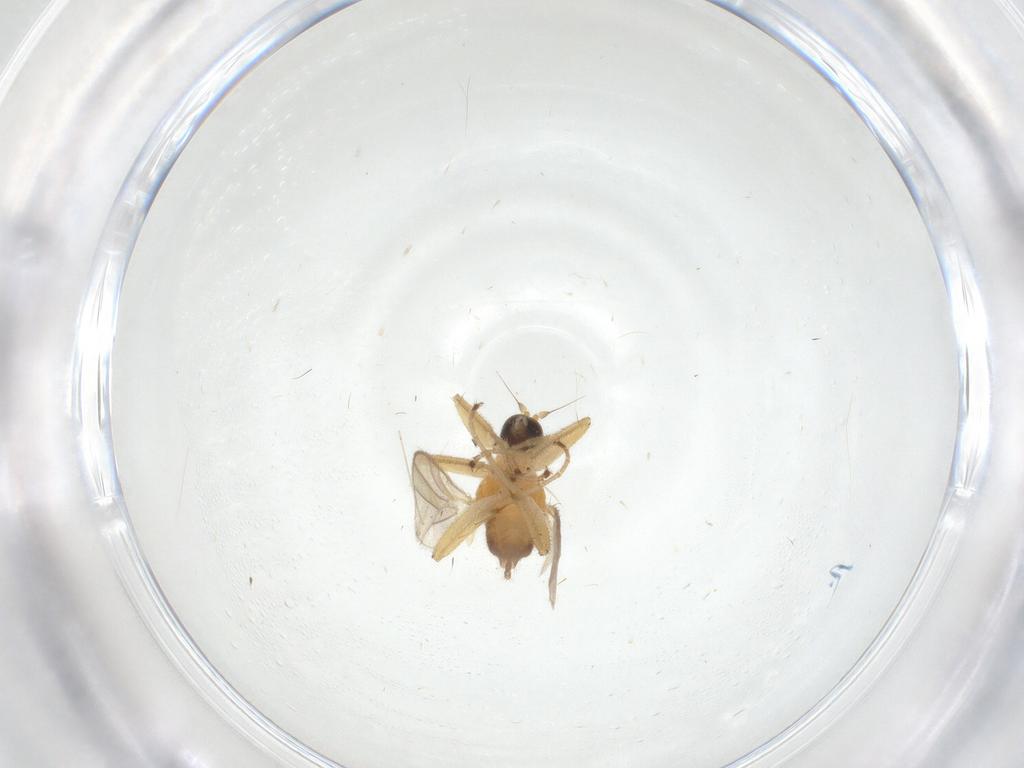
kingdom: Animalia
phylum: Arthropoda
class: Insecta
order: Diptera
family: Hybotidae
